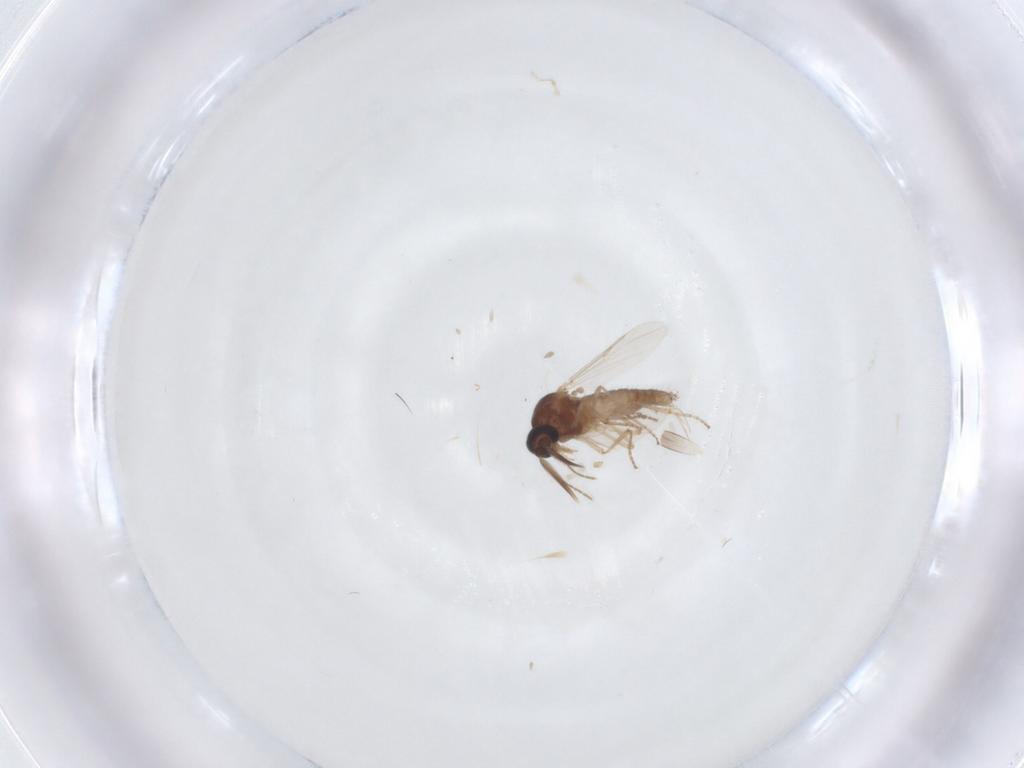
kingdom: Animalia
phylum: Arthropoda
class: Insecta
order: Diptera
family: Ceratopogonidae
